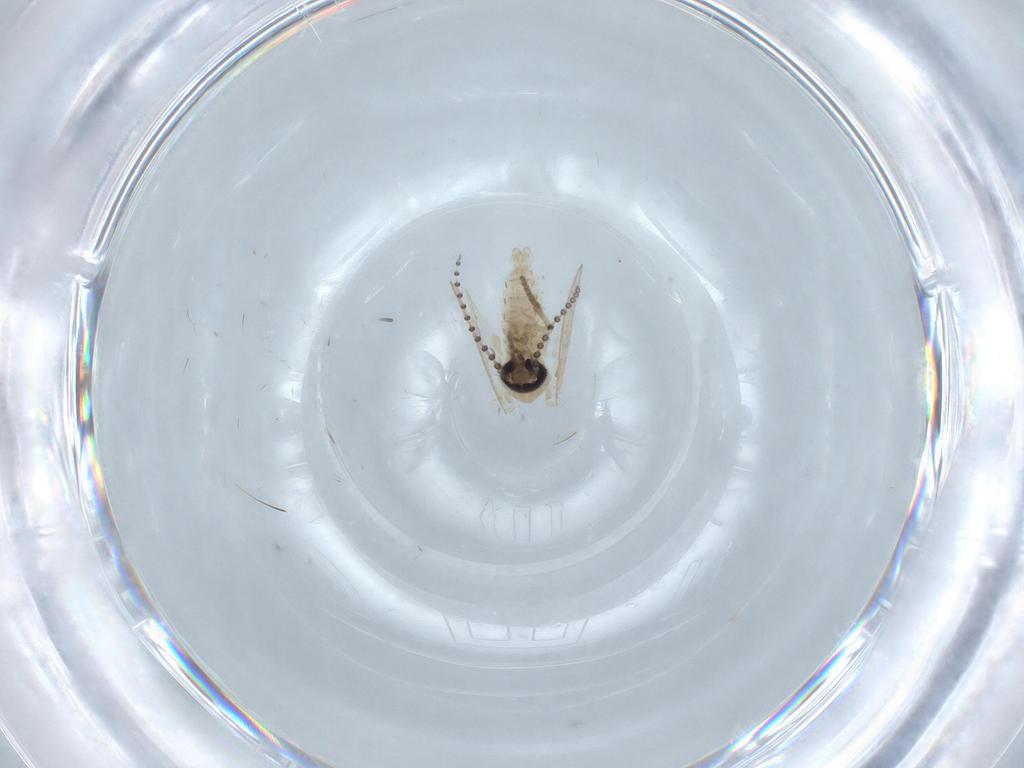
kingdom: Animalia
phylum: Arthropoda
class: Insecta
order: Diptera
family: Psychodidae
